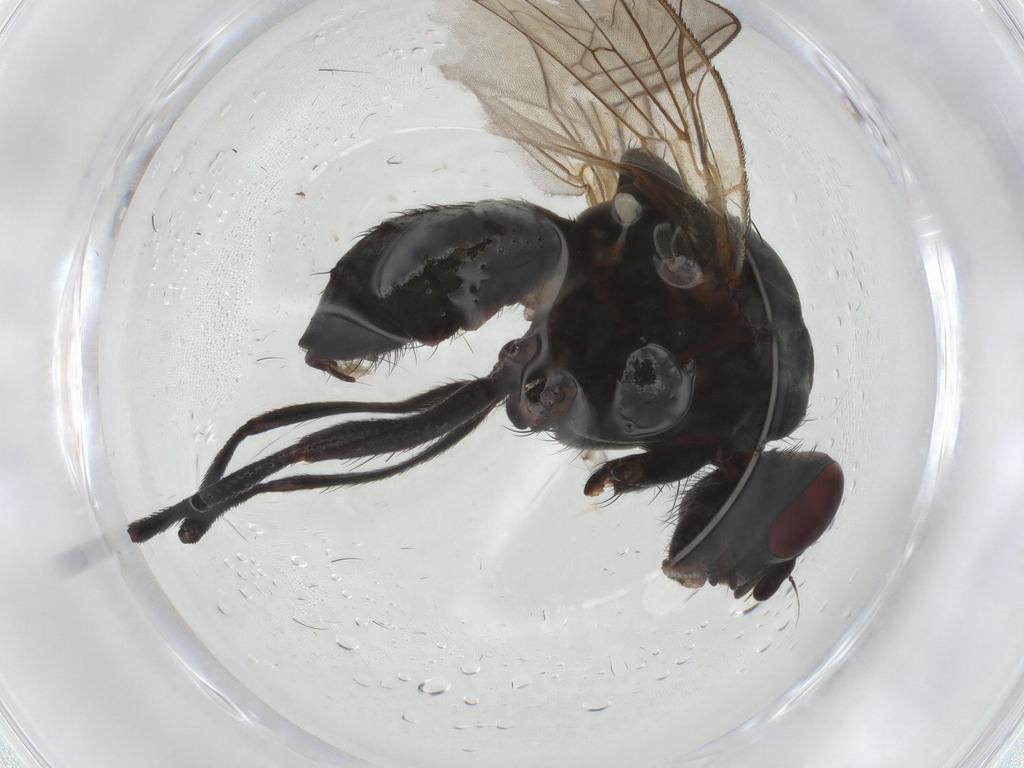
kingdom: Animalia
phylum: Arthropoda
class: Insecta
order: Diptera
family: Anthomyiidae
